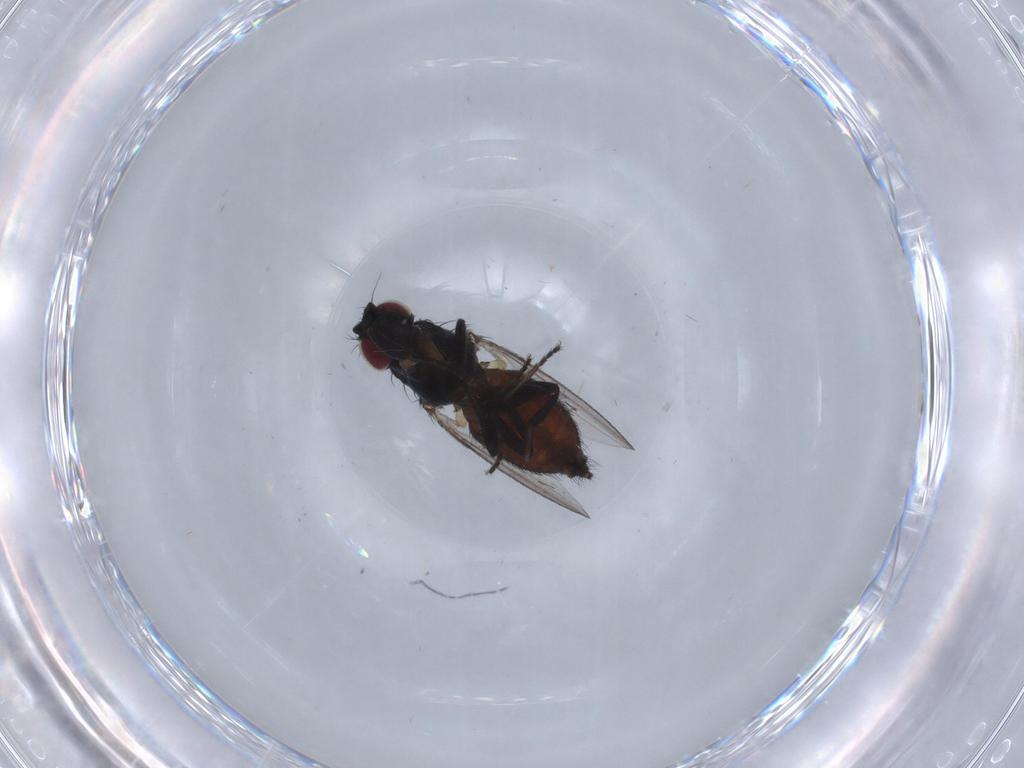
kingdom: Animalia
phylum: Arthropoda
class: Insecta
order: Diptera
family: Milichiidae
